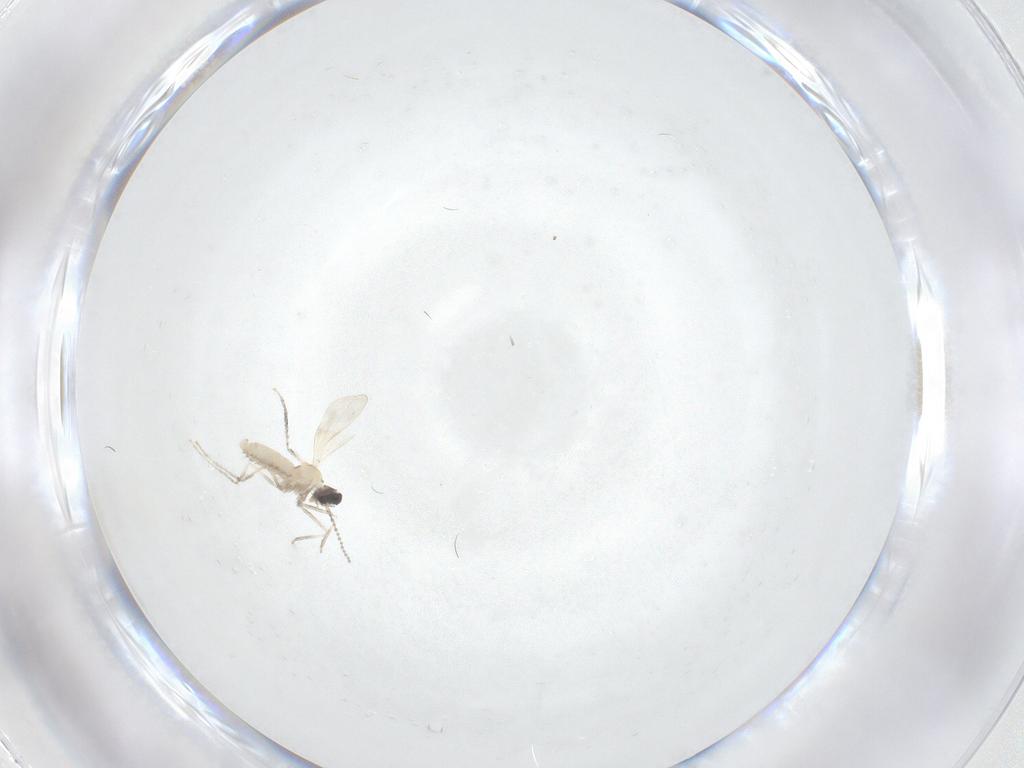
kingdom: Animalia
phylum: Arthropoda
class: Insecta
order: Diptera
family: Cecidomyiidae
